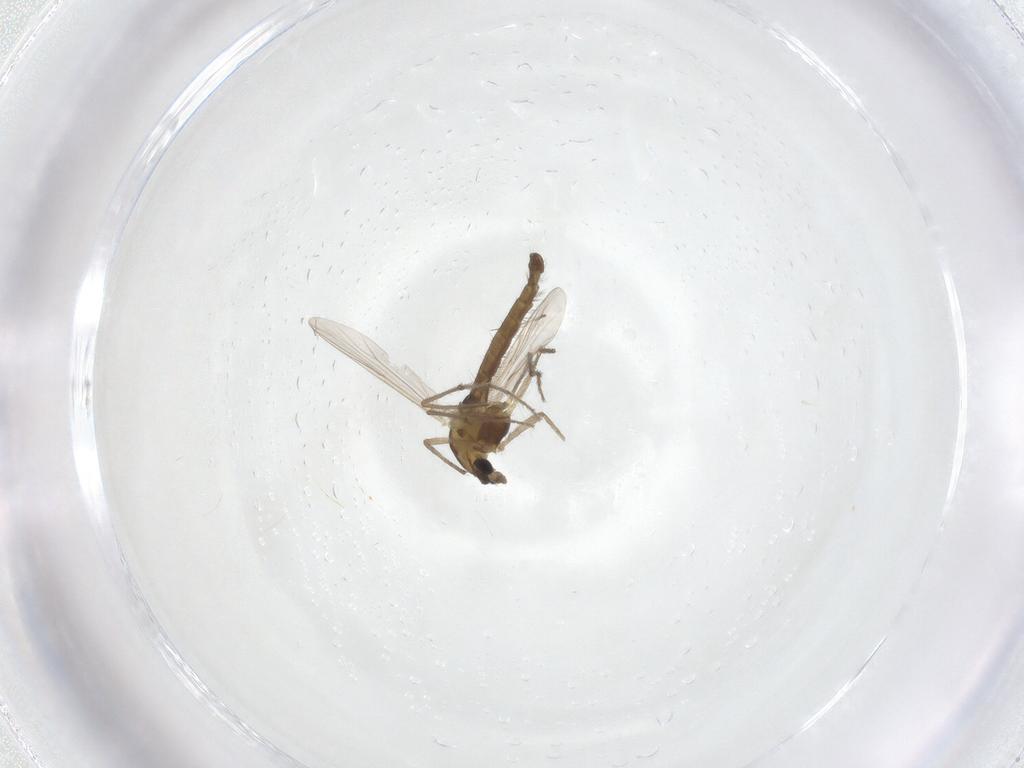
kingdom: Animalia
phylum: Arthropoda
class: Insecta
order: Diptera
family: Chironomidae
